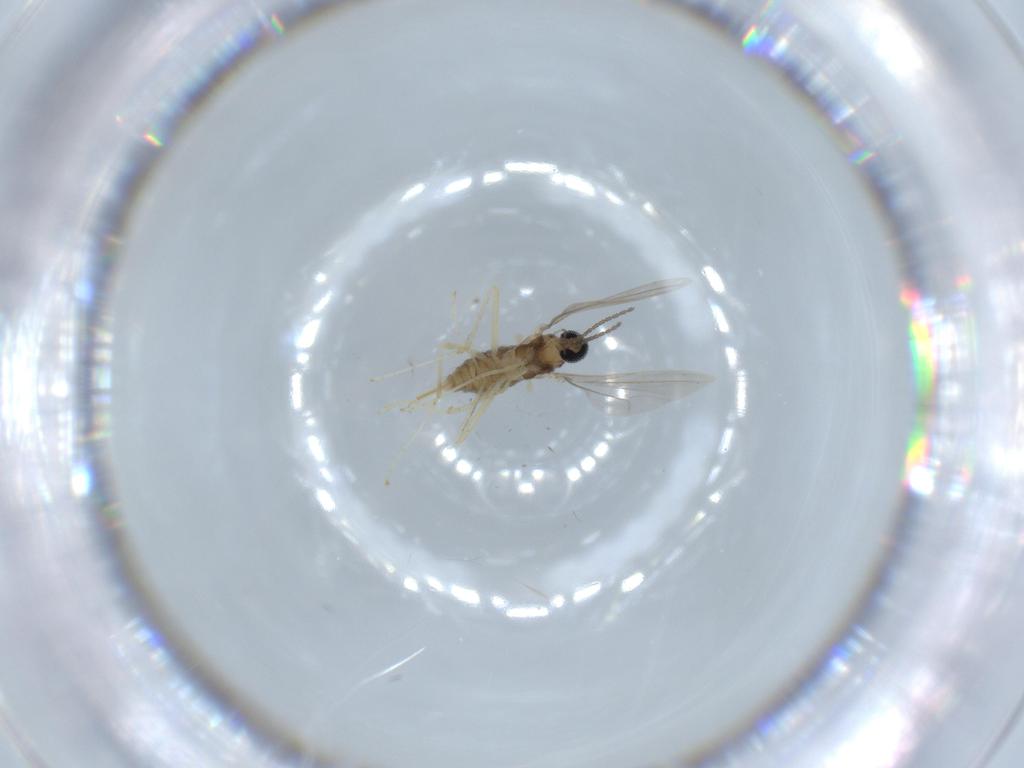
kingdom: Animalia
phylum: Arthropoda
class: Insecta
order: Diptera
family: Cecidomyiidae
